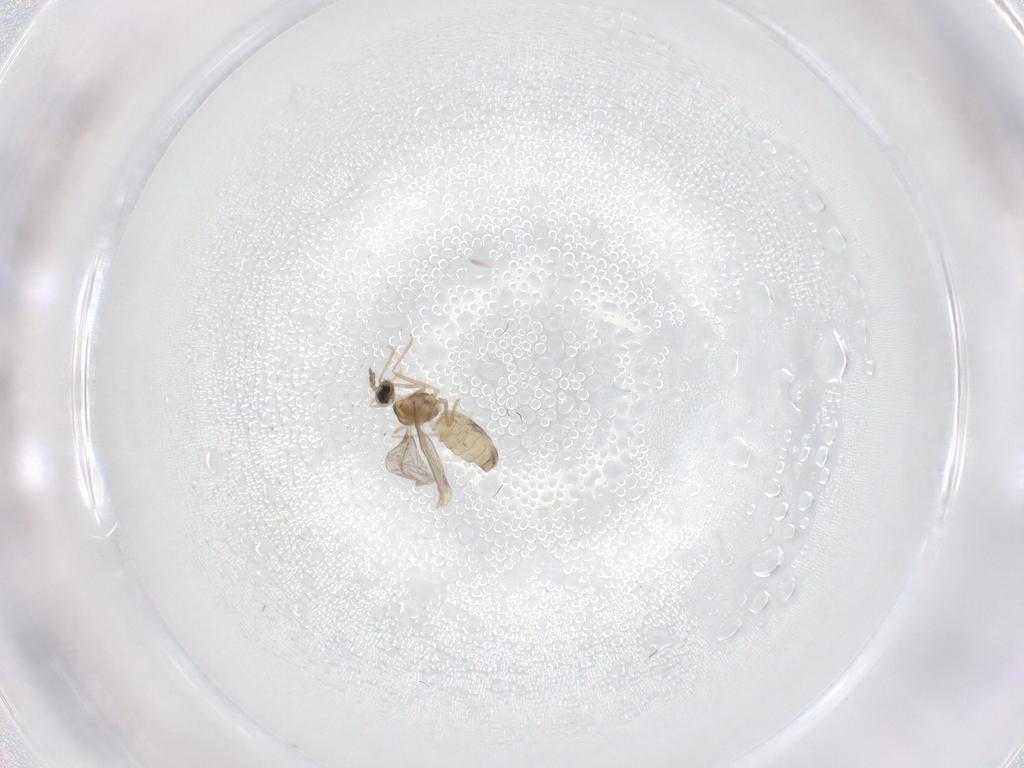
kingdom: Animalia
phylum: Arthropoda
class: Insecta
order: Diptera
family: Cecidomyiidae
